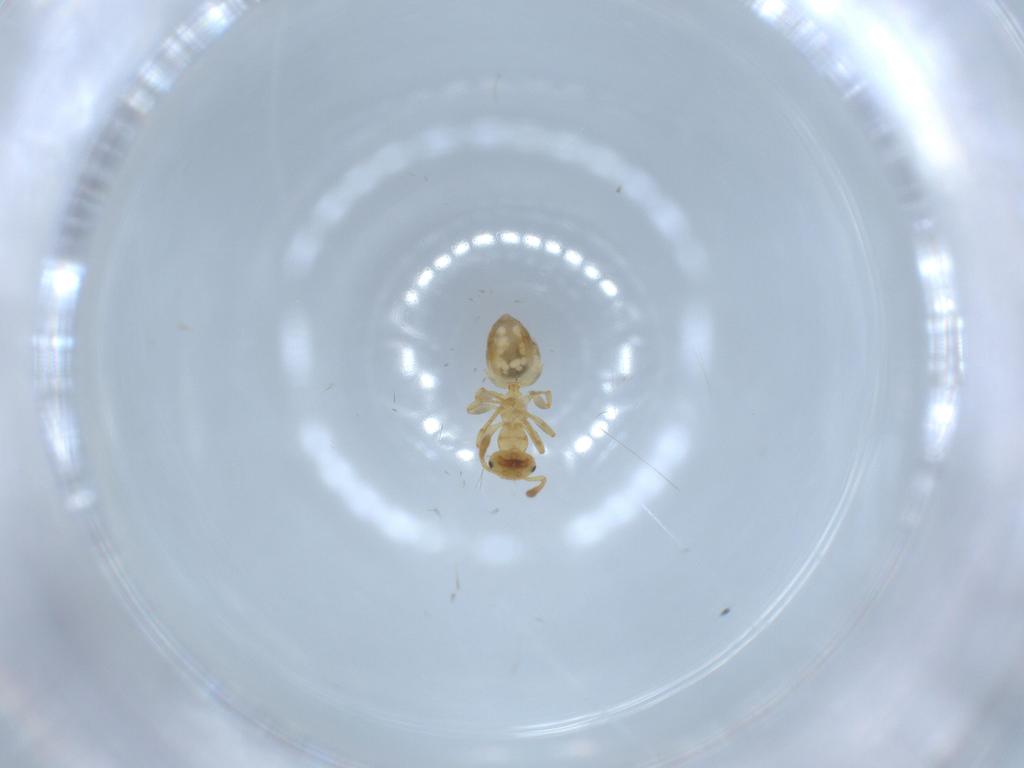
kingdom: Animalia
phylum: Arthropoda
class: Insecta
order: Hymenoptera
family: Formicidae
